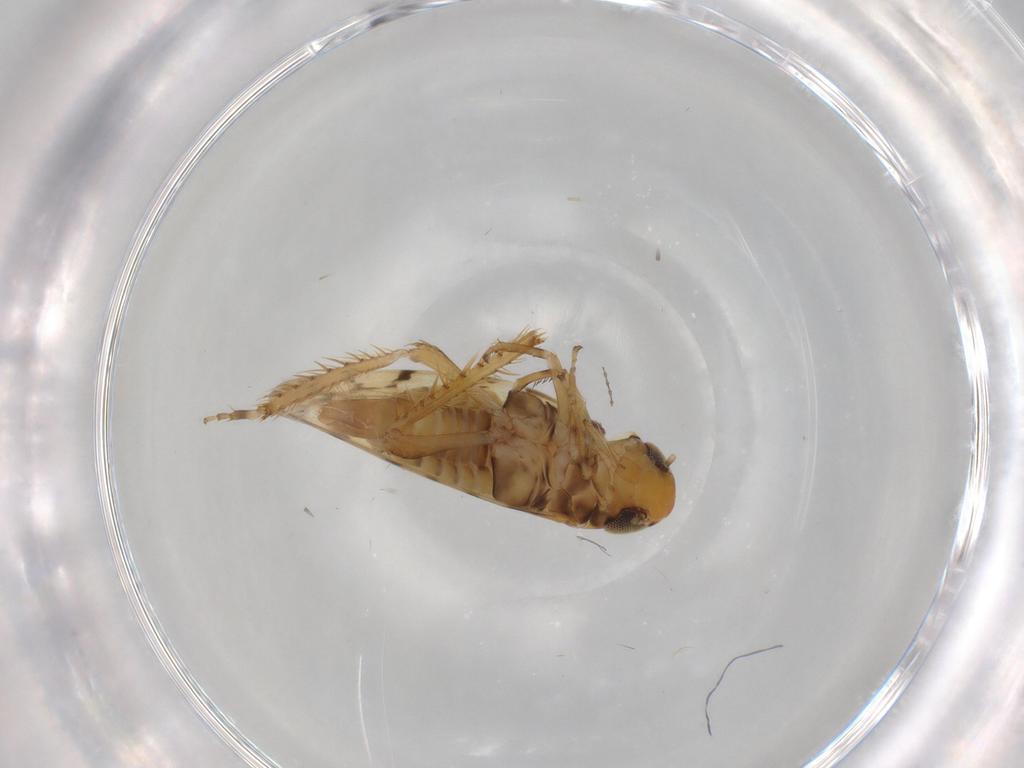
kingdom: Animalia
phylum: Arthropoda
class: Insecta
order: Hemiptera
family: Cicadellidae
